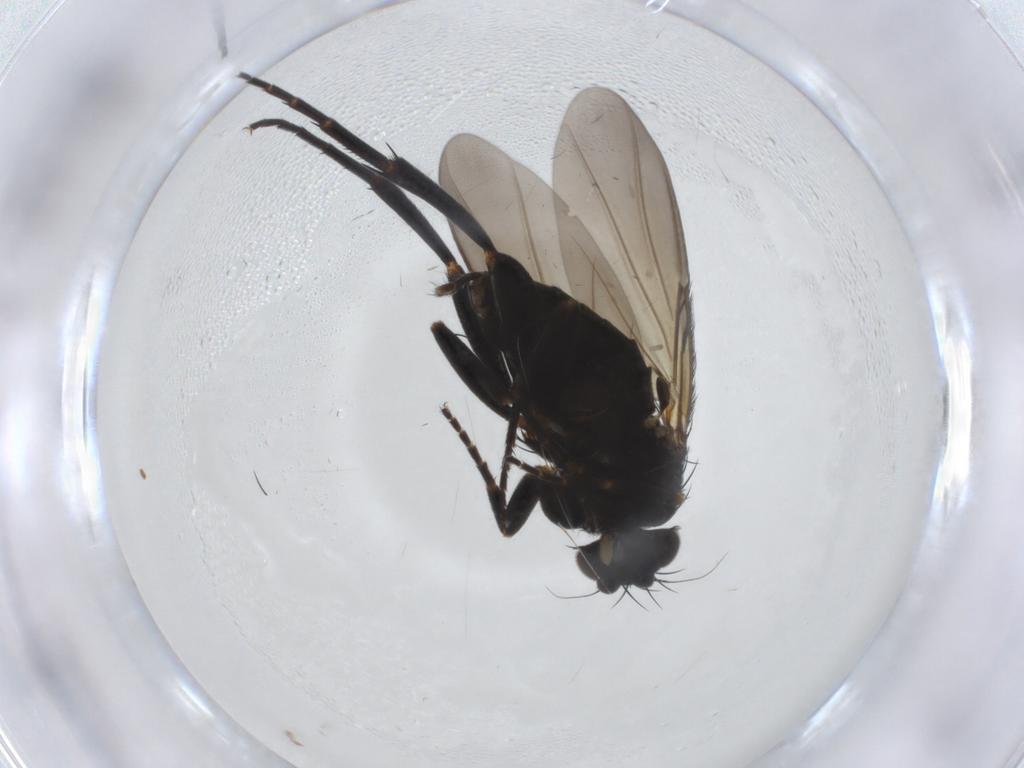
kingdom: Animalia
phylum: Arthropoda
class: Insecta
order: Diptera
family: Phoridae
